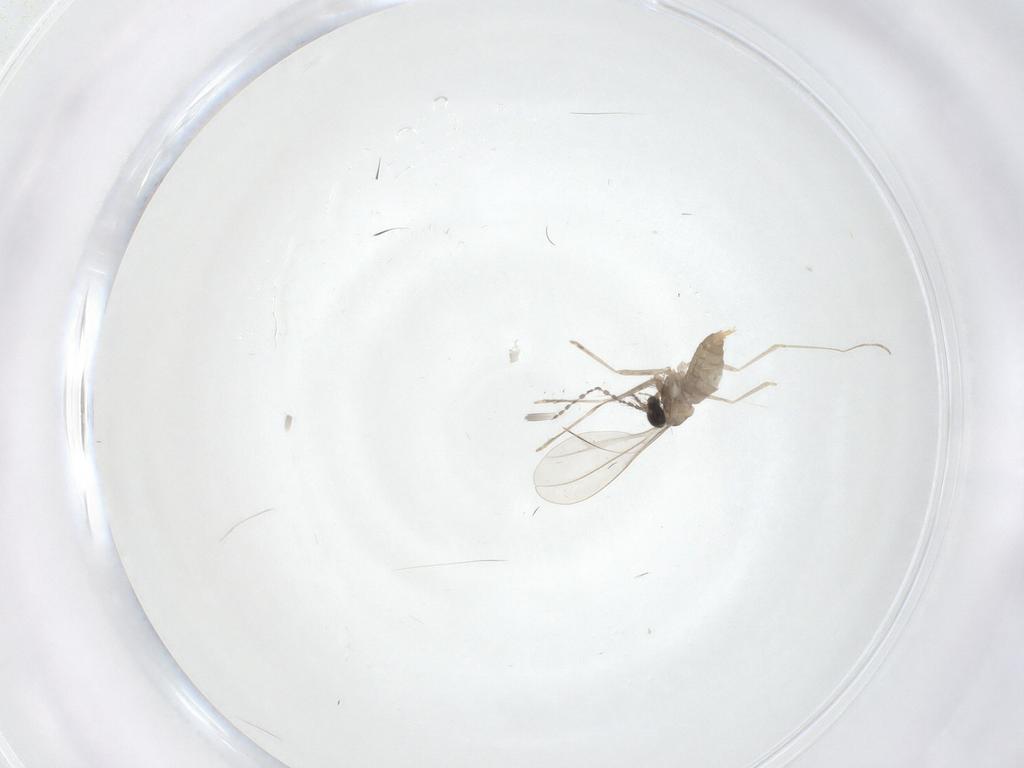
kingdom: Animalia
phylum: Arthropoda
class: Insecta
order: Diptera
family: Cecidomyiidae
